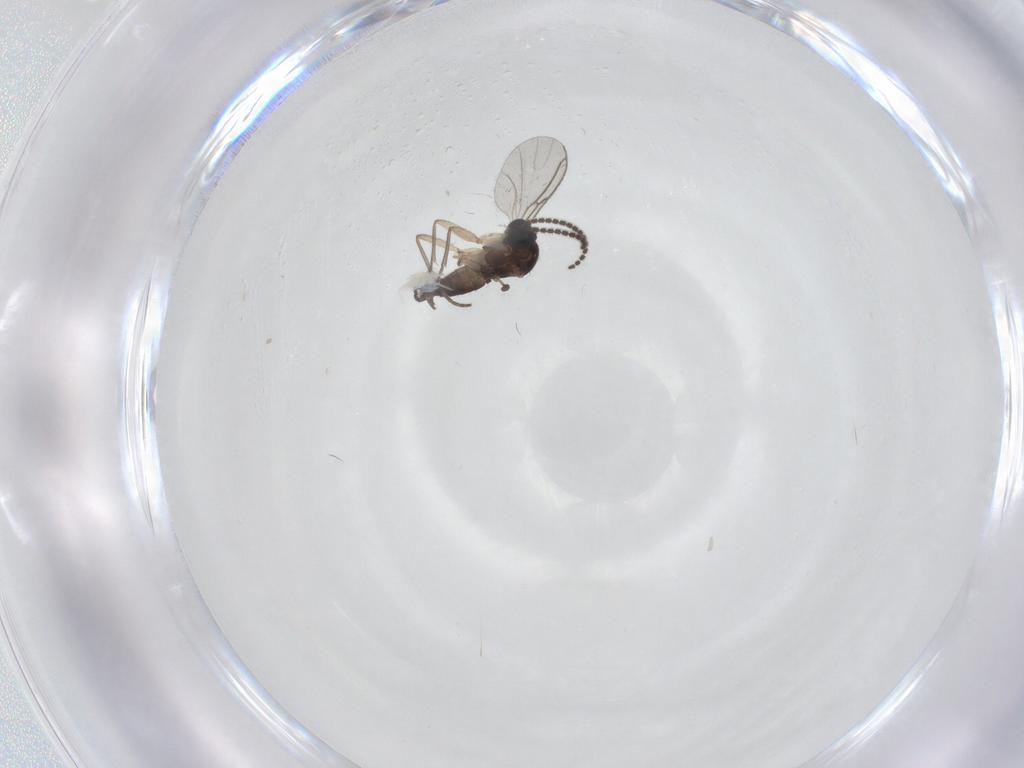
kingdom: Animalia
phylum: Arthropoda
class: Insecta
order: Diptera
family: Sciaridae
